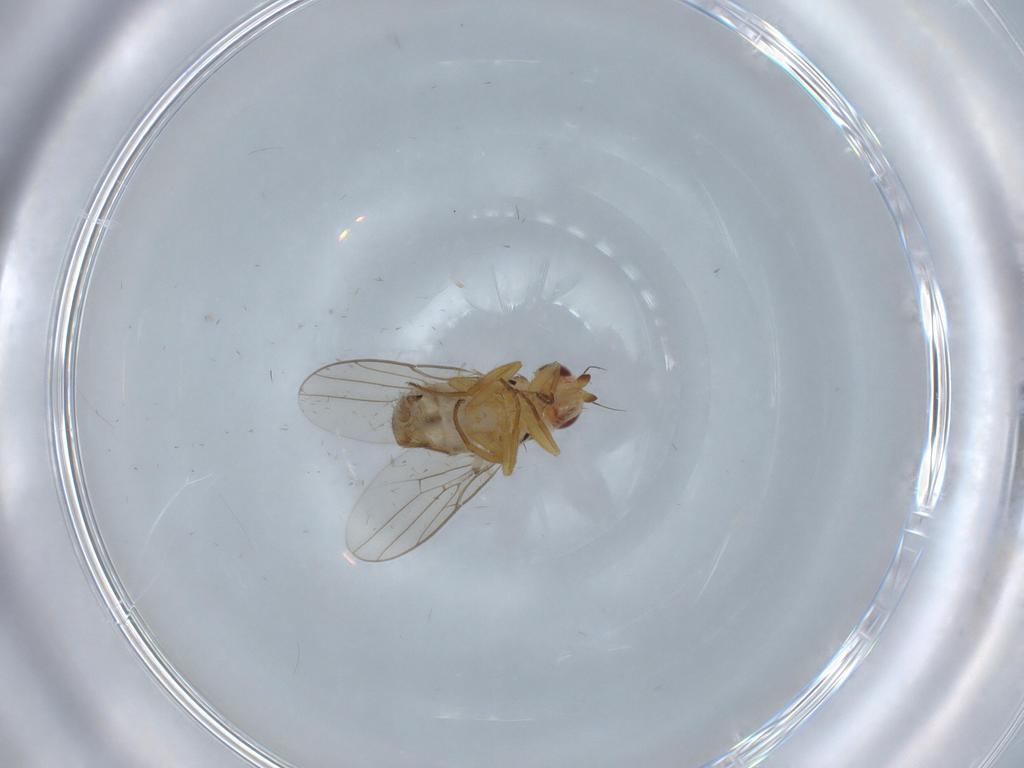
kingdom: Animalia
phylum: Arthropoda
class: Insecta
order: Diptera
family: Chloropidae
